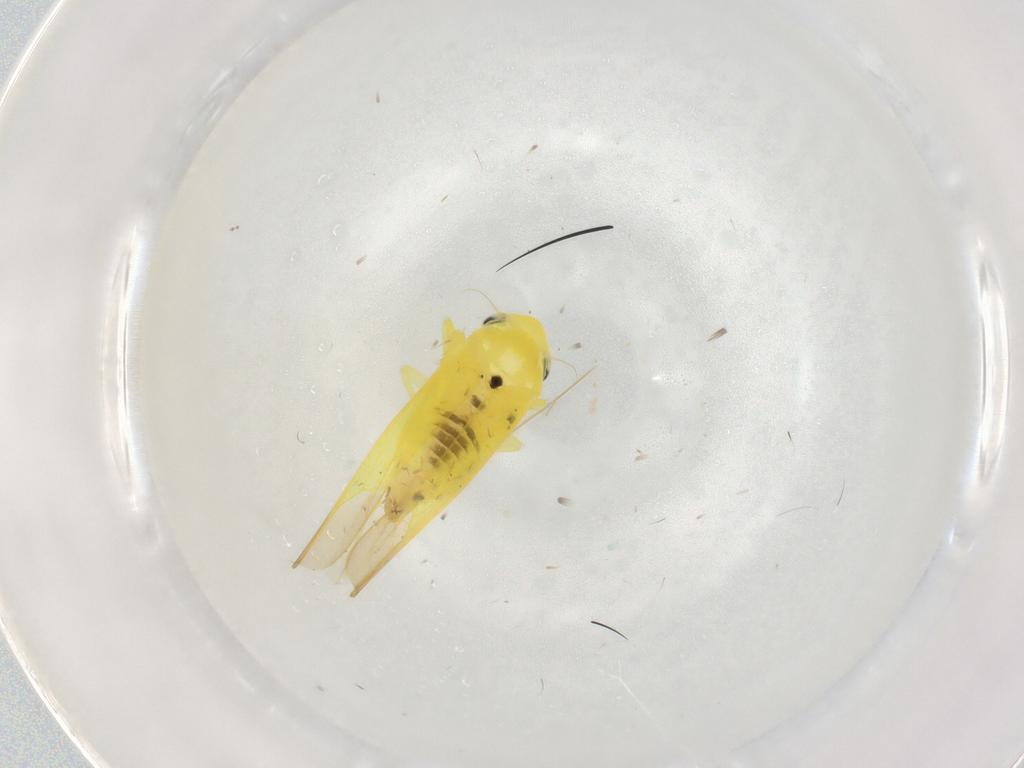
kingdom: Animalia
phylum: Arthropoda
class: Insecta
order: Hemiptera
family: Cicadellidae
